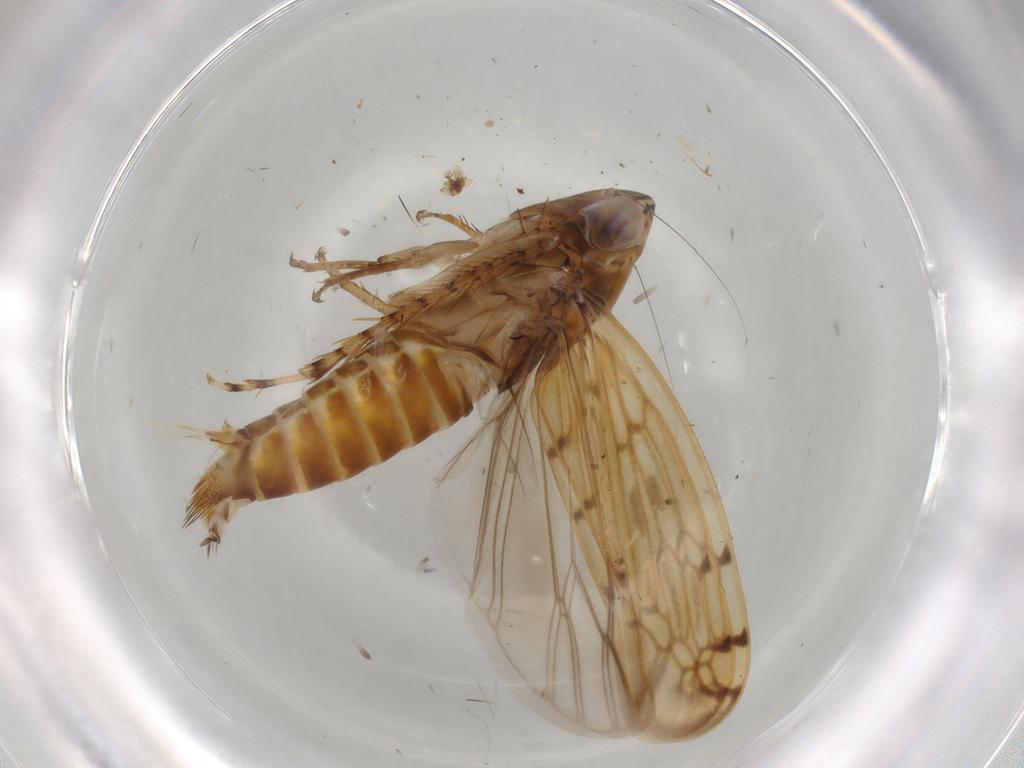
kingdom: Animalia
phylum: Arthropoda
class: Insecta
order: Hemiptera
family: Cicadellidae
